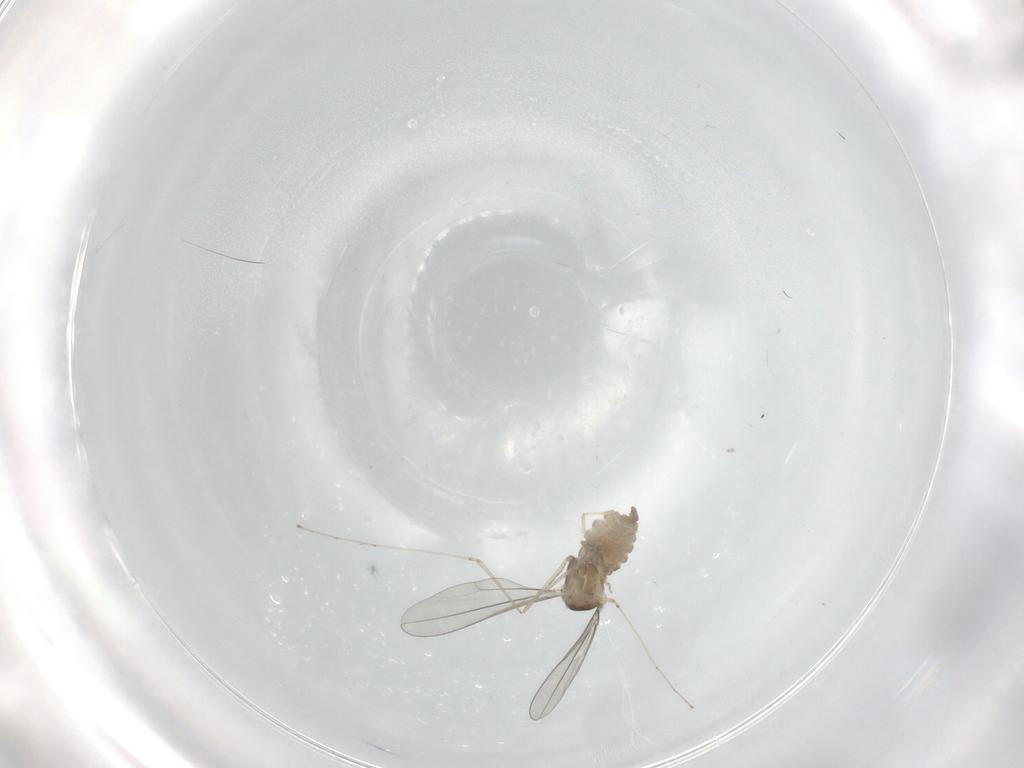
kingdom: Animalia
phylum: Arthropoda
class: Insecta
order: Diptera
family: Cecidomyiidae
